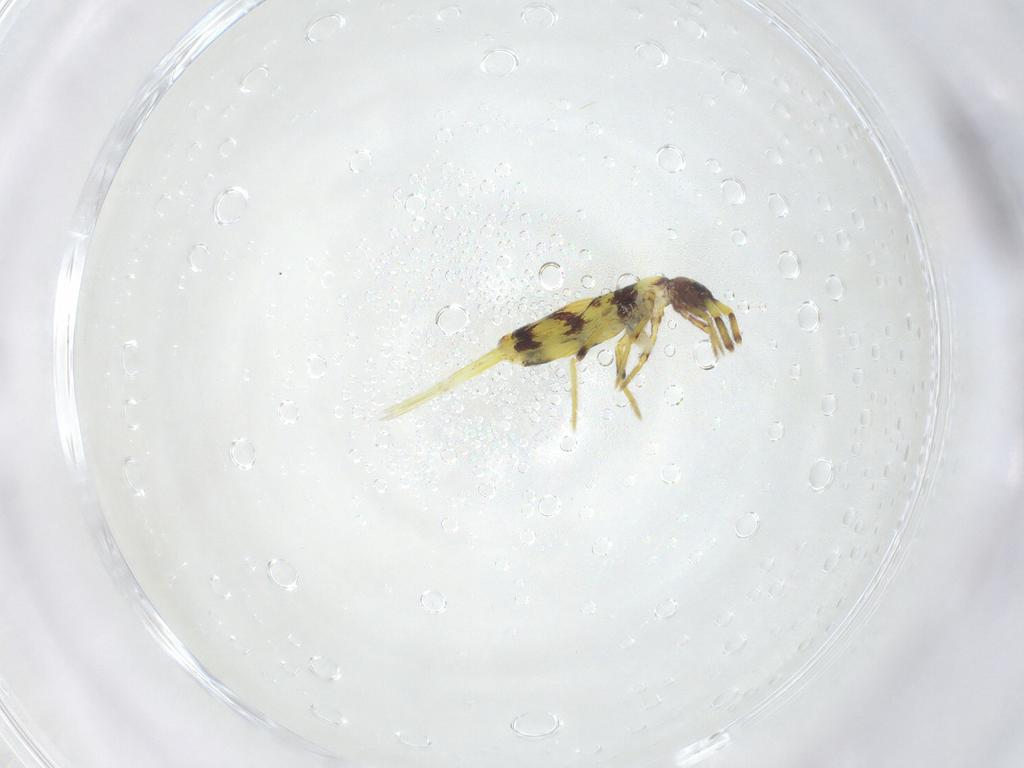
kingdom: Animalia
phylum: Arthropoda
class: Collembola
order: Entomobryomorpha
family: Entomobryidae
